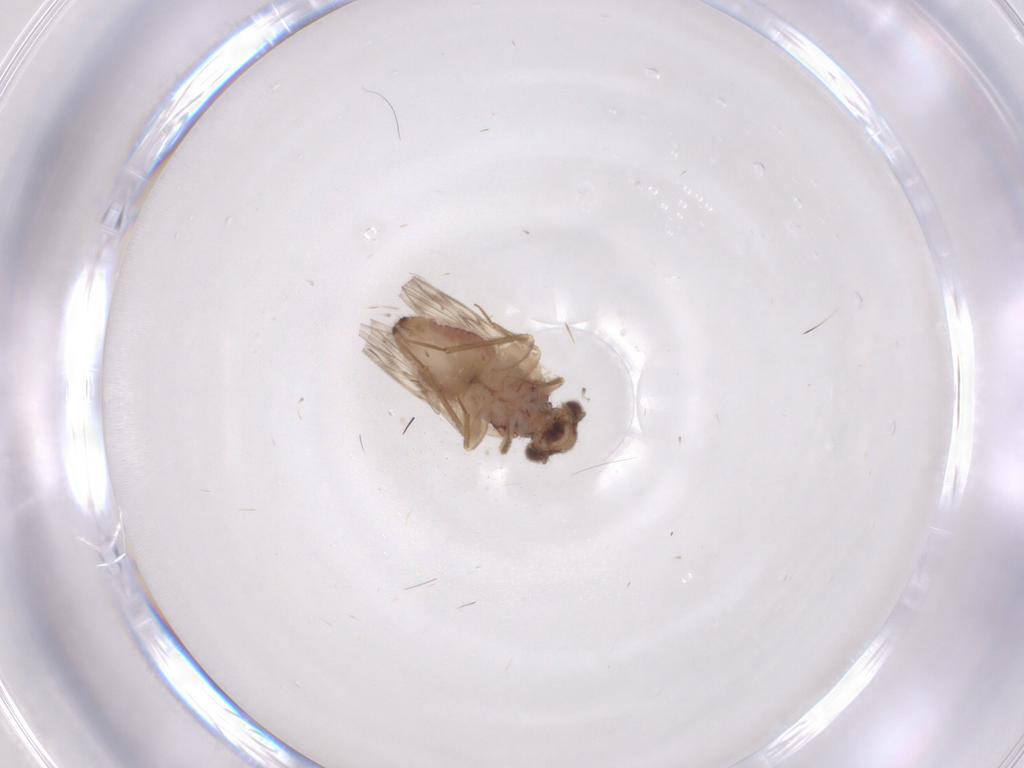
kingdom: Animalia
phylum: Arthropoda
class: Insecta
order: Psocodea
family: Lepidopsocidae
